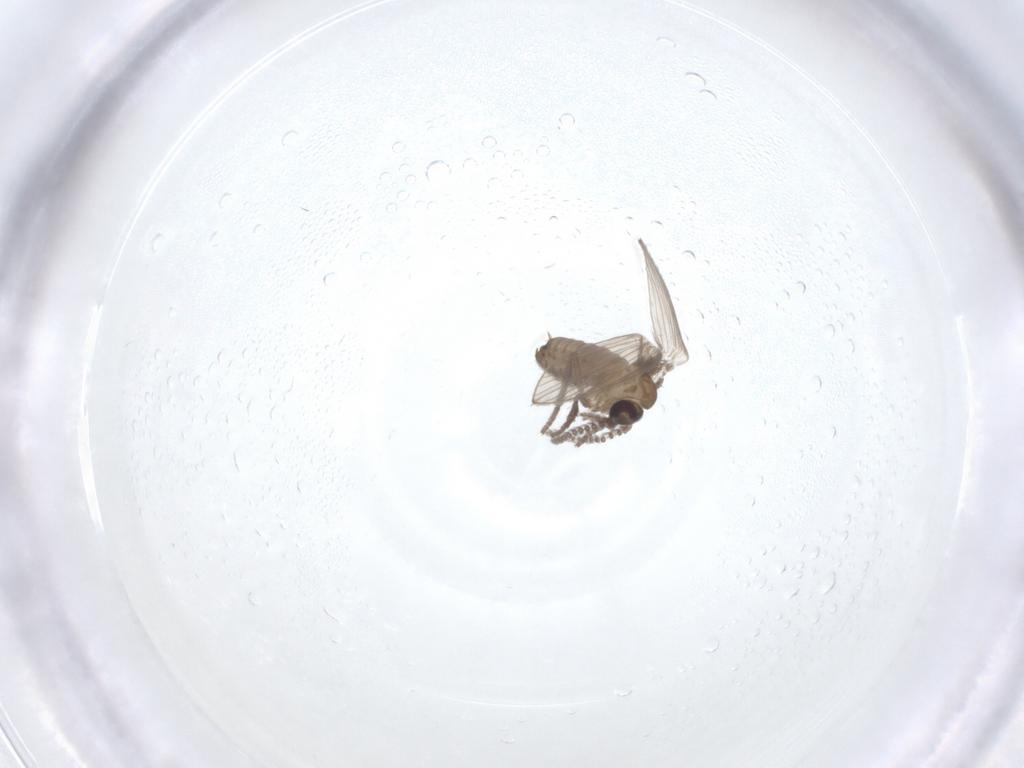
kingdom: Animalia
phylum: Arthropoda
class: Insecta
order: Diptera
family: Psychodidae
